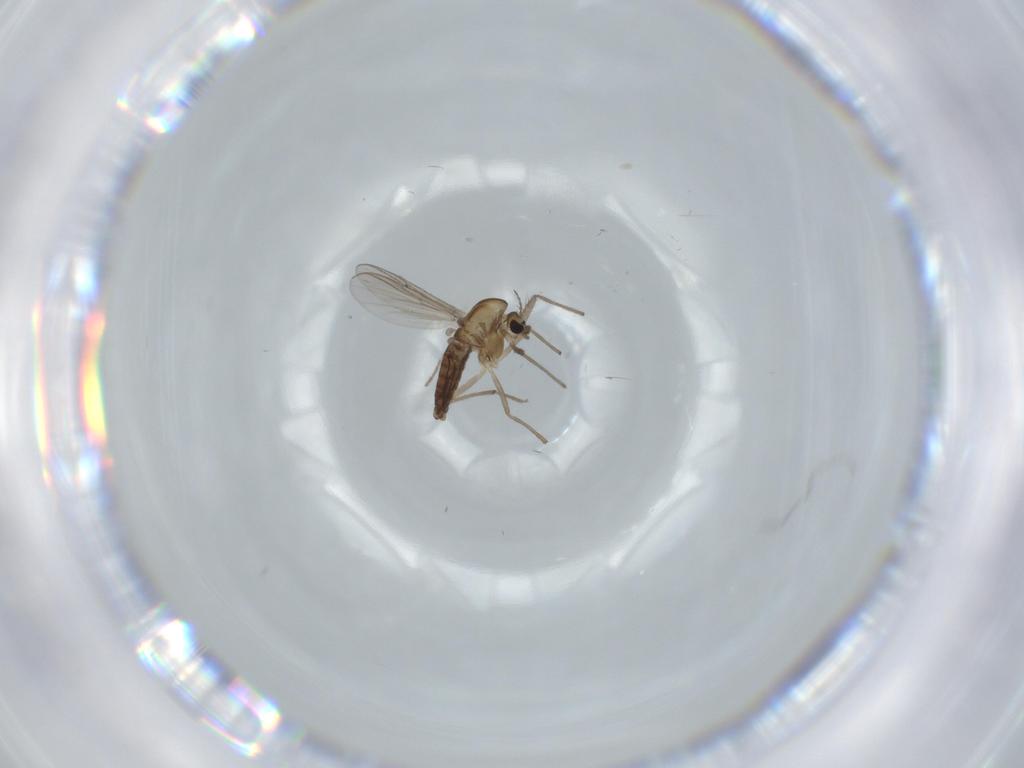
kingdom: Animalia
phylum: Arthropoda
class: Insecta
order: Diptera
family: Chironomidae
